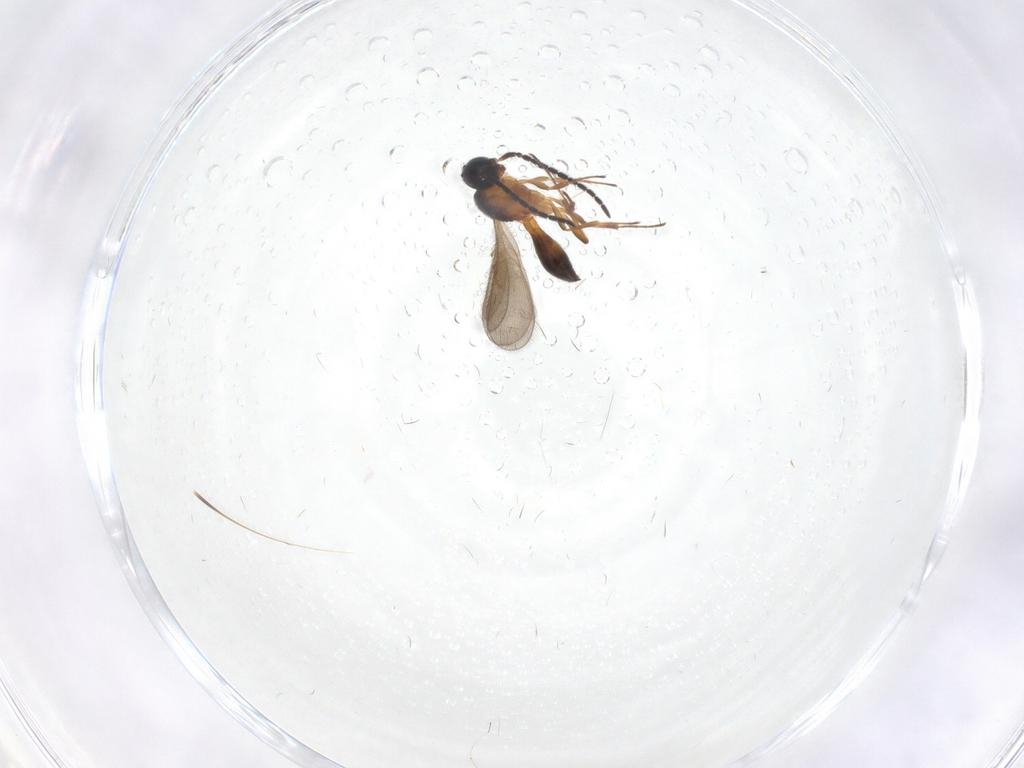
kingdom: Animalia
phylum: Arthropoda
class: Insecta
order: Hymenoptera
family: Scelionidae
